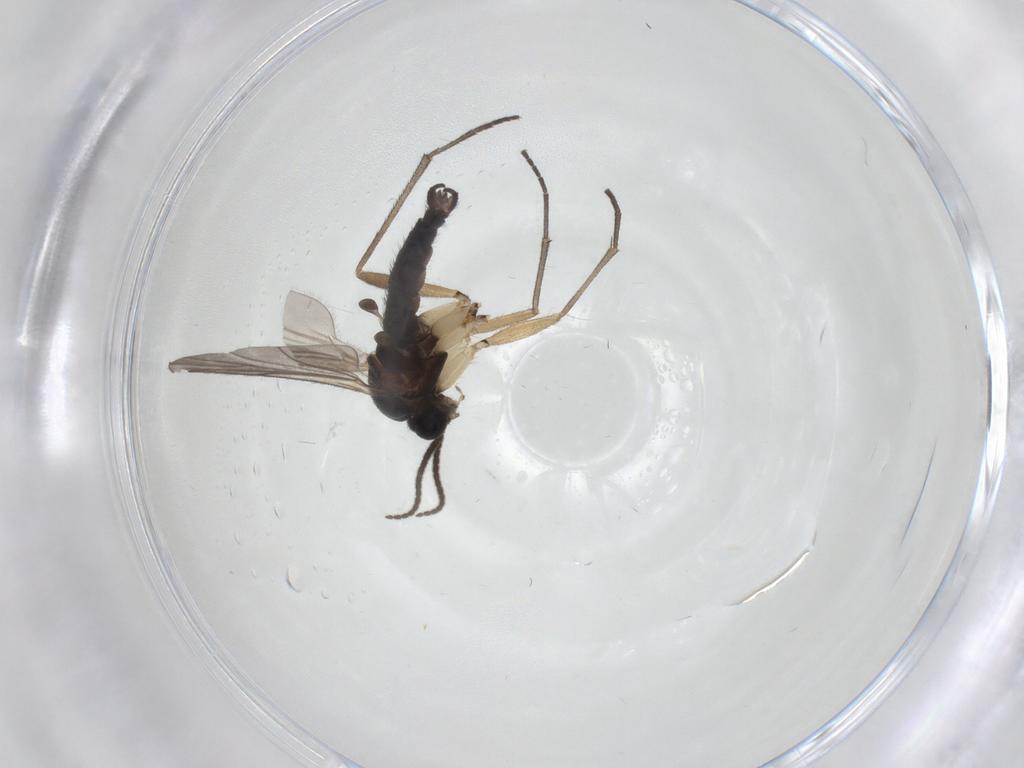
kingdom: Animalia
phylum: Arthropoda
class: Insecta
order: Diptera
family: Sciaridae
